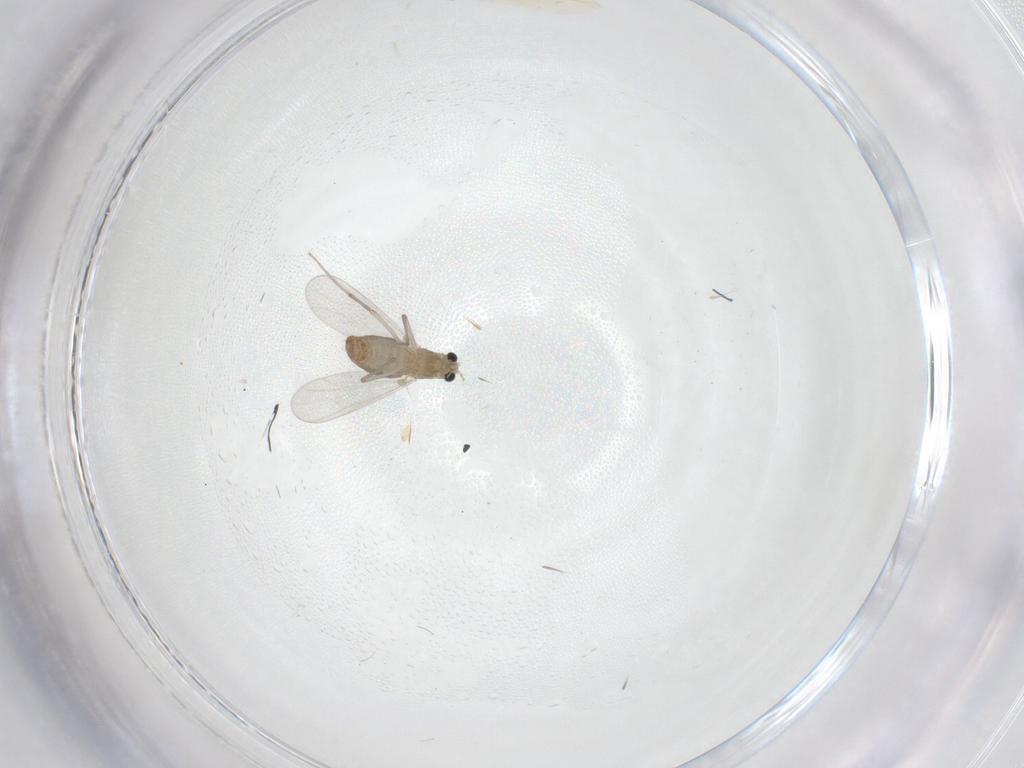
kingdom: Animalia
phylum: Arthropoda
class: Insecta
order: Diptera
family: Chironomidae
